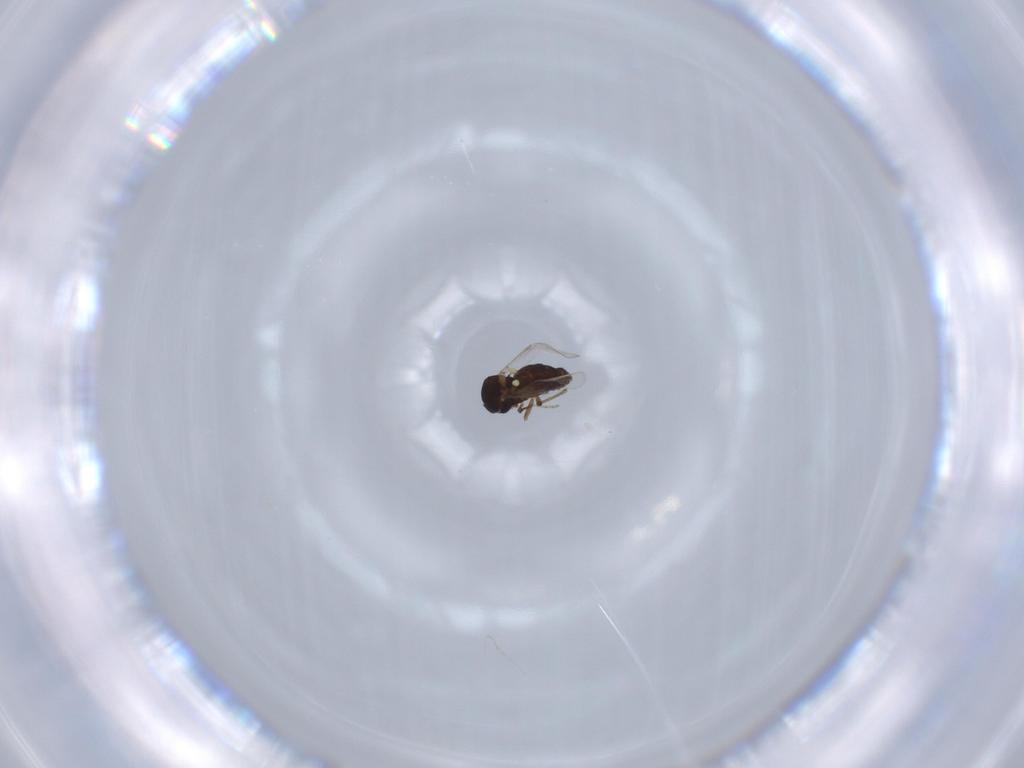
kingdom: Animalia
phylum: Arthropoda
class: Insecta
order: Diptera
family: Ceratopogonidae
